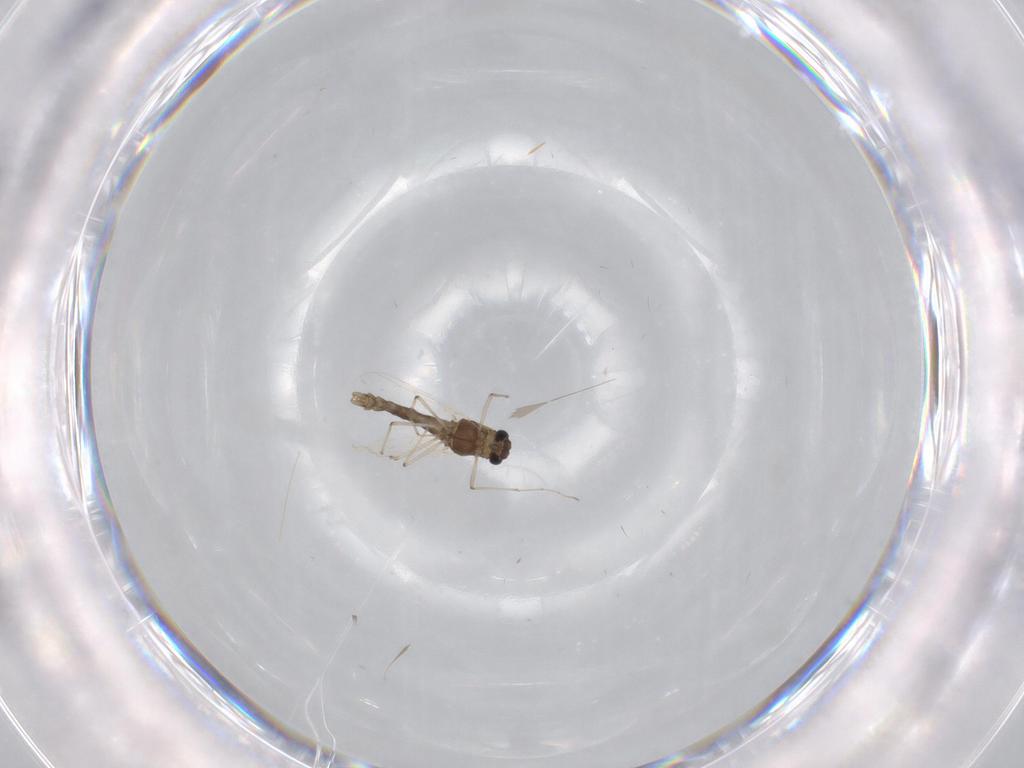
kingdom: Animalia
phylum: Arthropoda
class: Insecta
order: Diptera
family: Chironomidae
